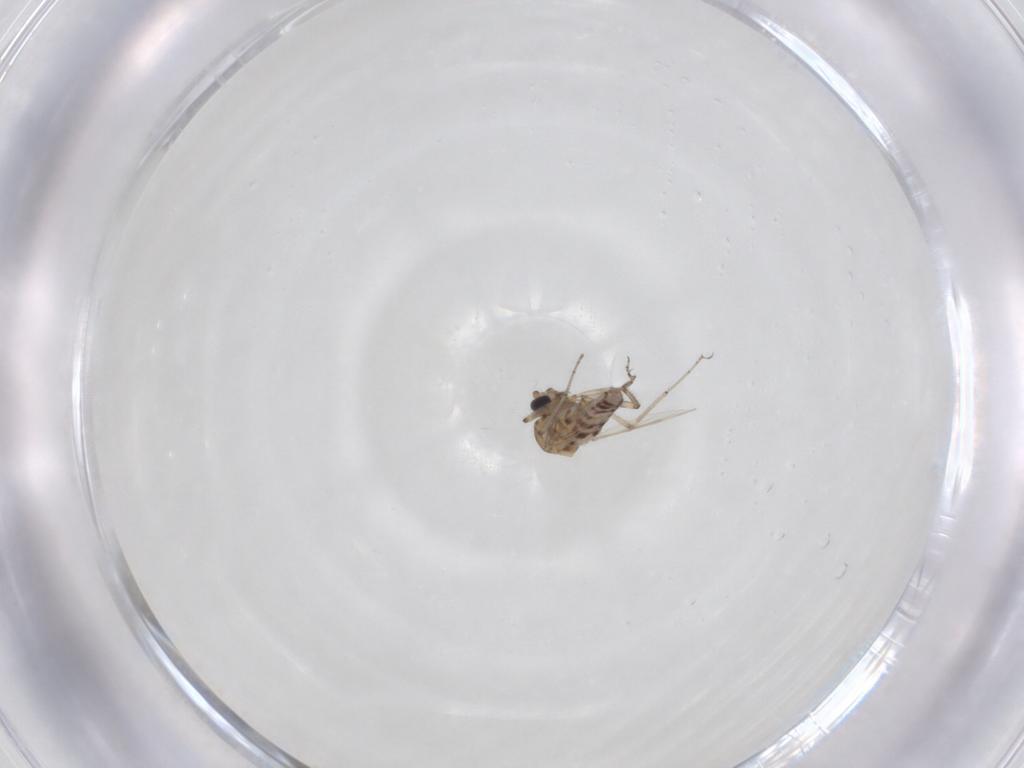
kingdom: Animalia
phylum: Arthropoda
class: Insecta
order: Diptera
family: Ceratopogonidae
